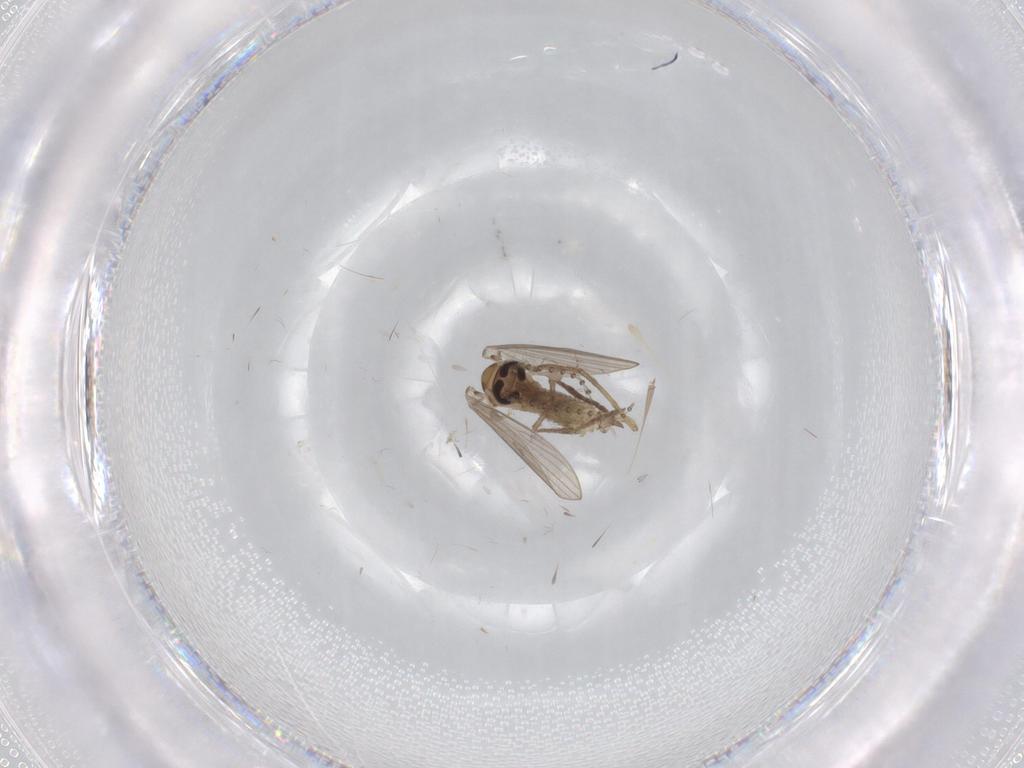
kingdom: Animalia
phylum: Arthropoda
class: Insecta
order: Diptera
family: Psychodidae
